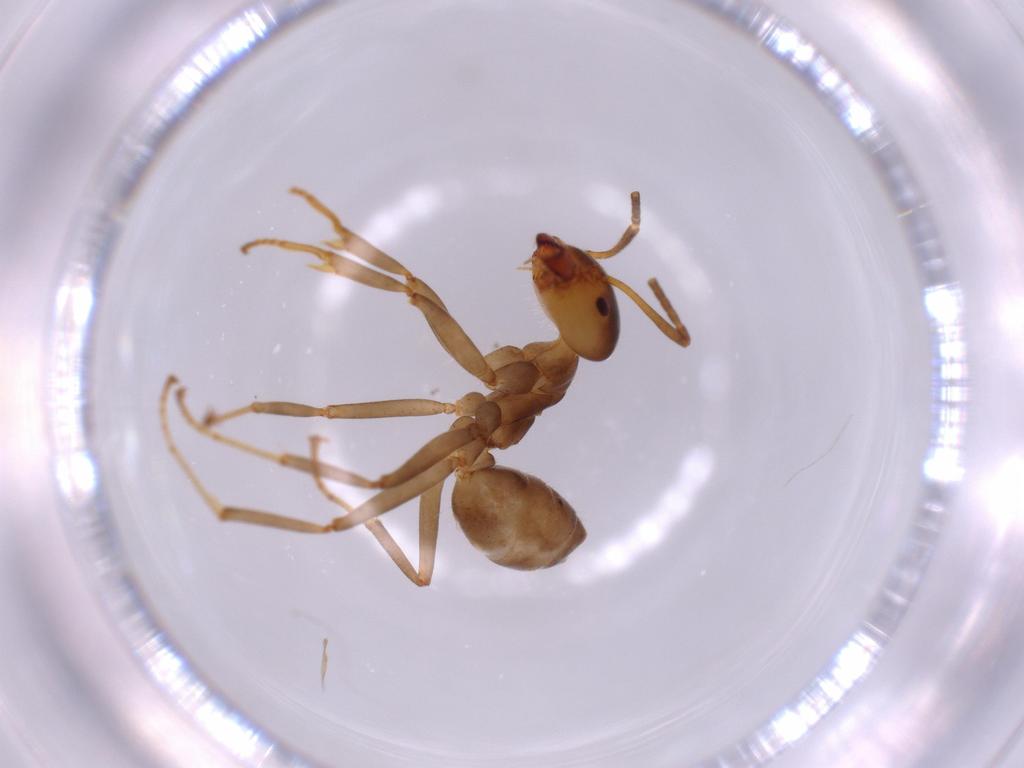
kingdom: Animalia
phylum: Arthropoda
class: Insecta
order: Hymenoptera
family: Formicidae
